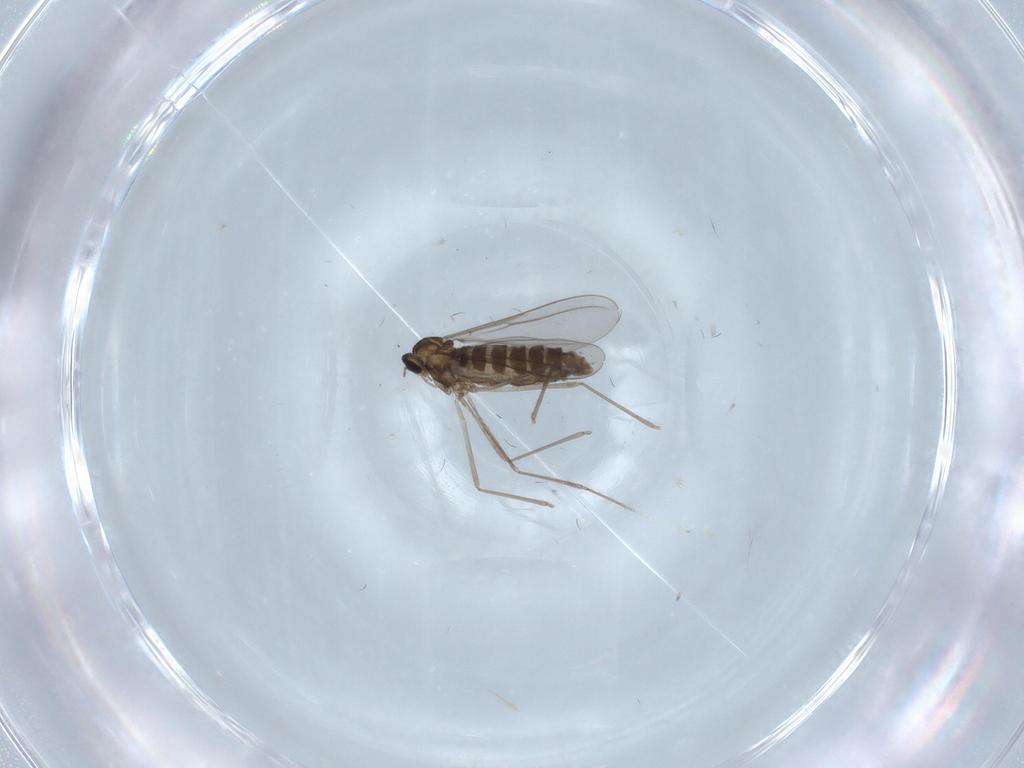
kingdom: Animalia
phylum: Arthropoda
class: Insecta
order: Diptera
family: Cecidomyiidae
